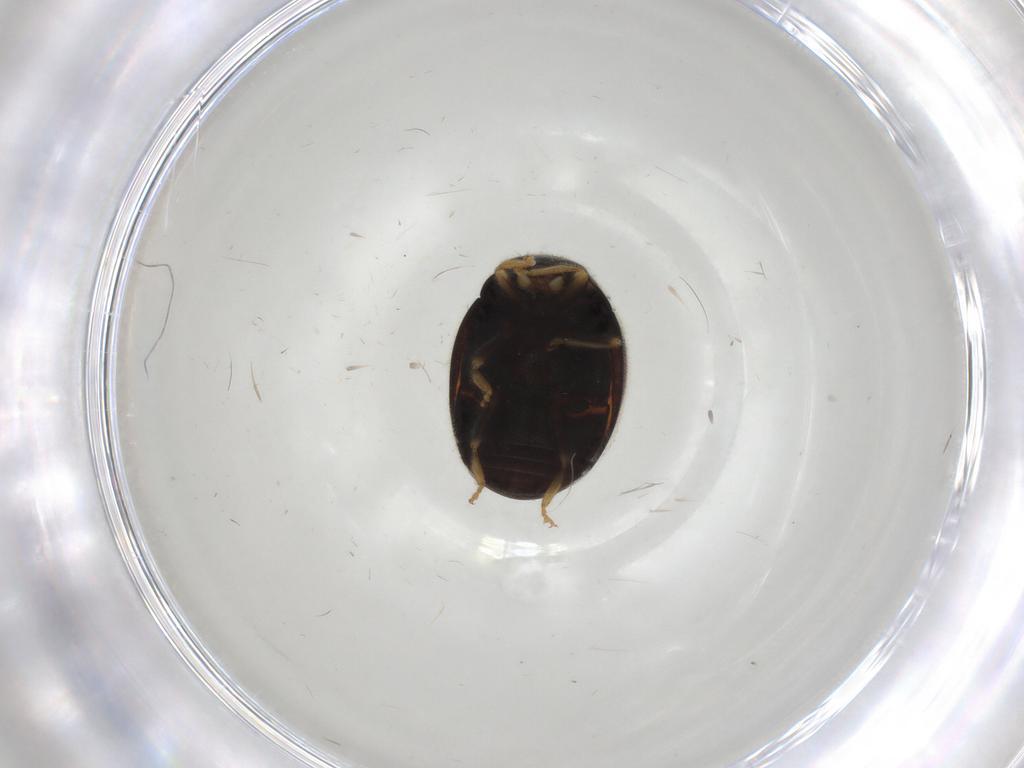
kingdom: Animalia
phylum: Arthropoda
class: Insecta
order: Coleoptera
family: Coccinellidae
